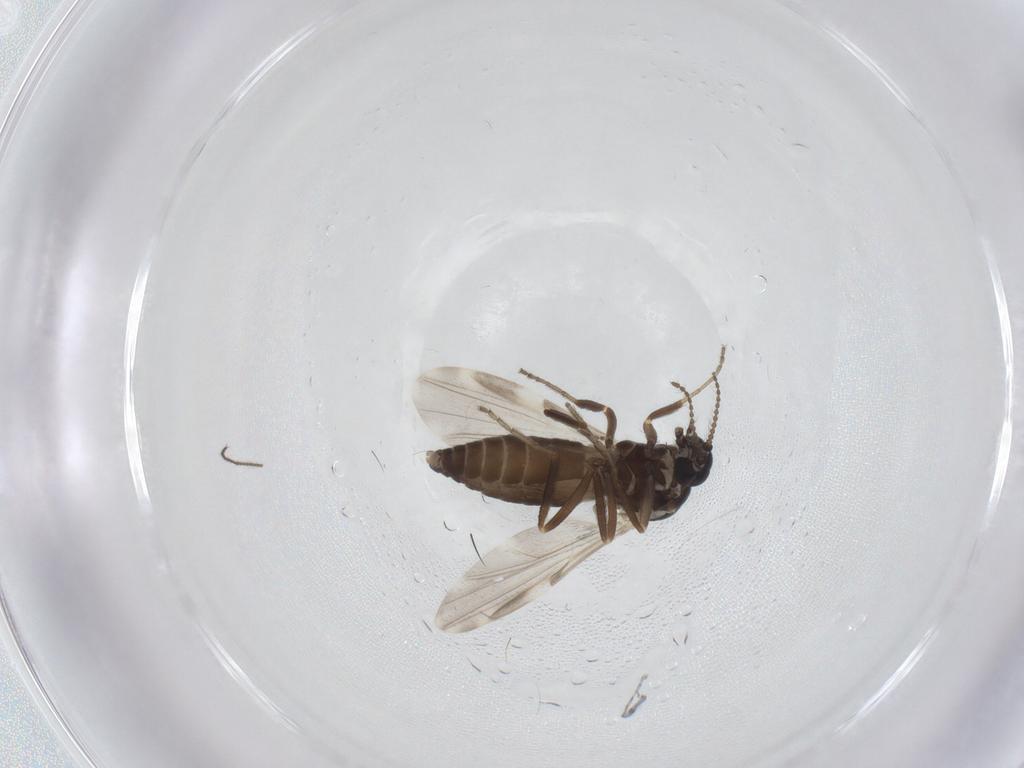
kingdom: Animalia
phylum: Arthropoda
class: Insecta
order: Diptera
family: Ceratopogonidae
